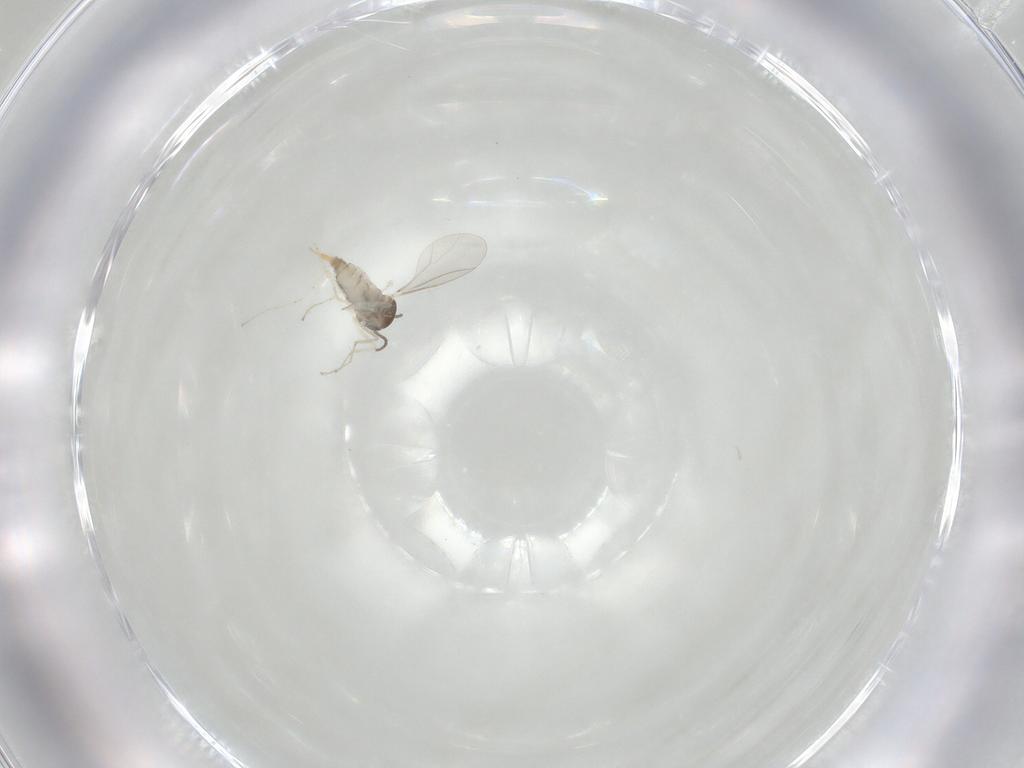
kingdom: Animalia
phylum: Arthropoda
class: Insecta
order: Diptera
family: Cecidomyiidae
